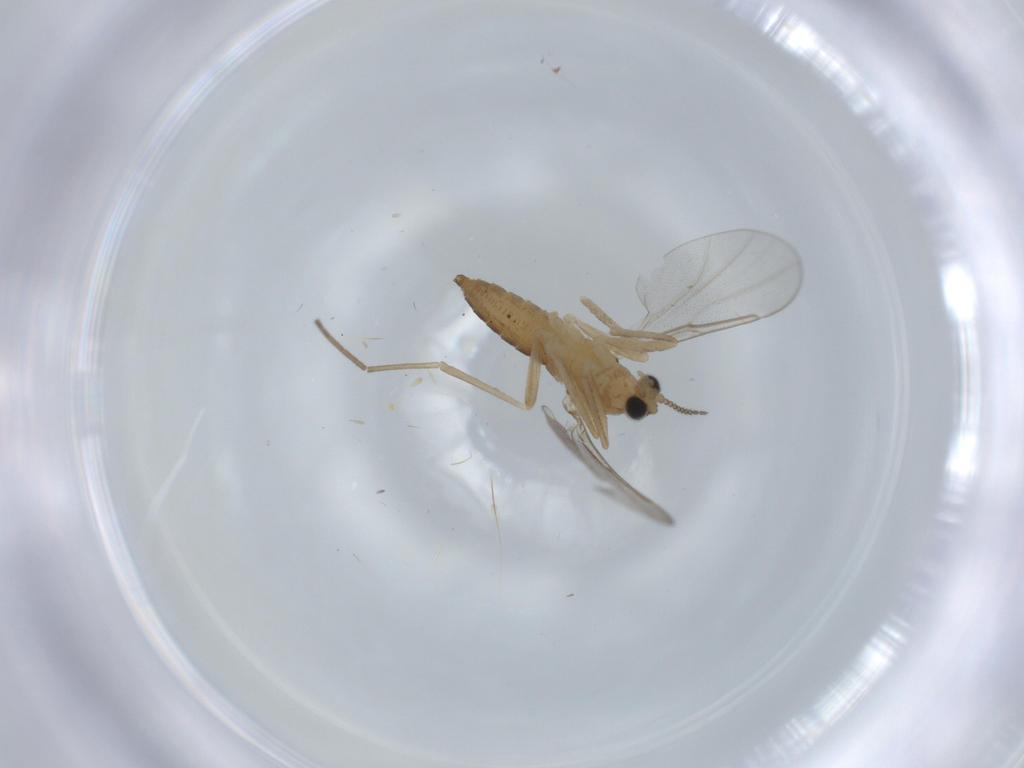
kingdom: Animalia
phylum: Arthropoda
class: Insecta
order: Diptera
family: Cecidomyiidae
